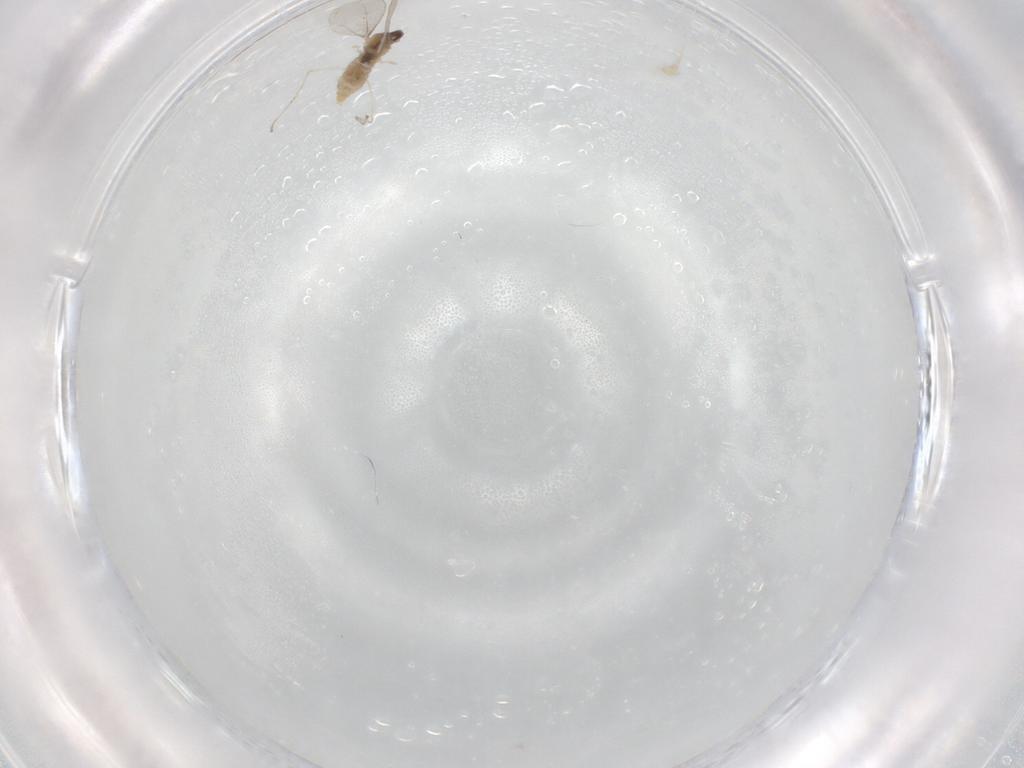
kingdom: Animalia
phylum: Arthropoda
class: Insecta
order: Diptera
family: Cecidomyiidae
